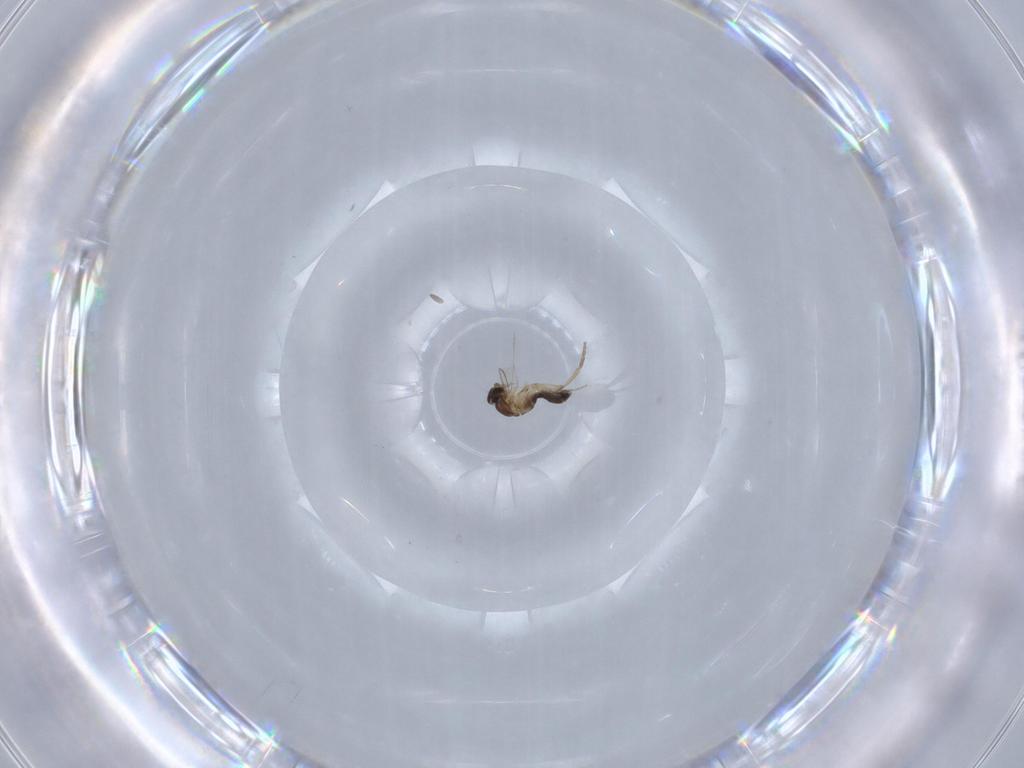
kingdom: Animalia
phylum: Arthropoda
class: Insecta
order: Diptera
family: Phoridae
